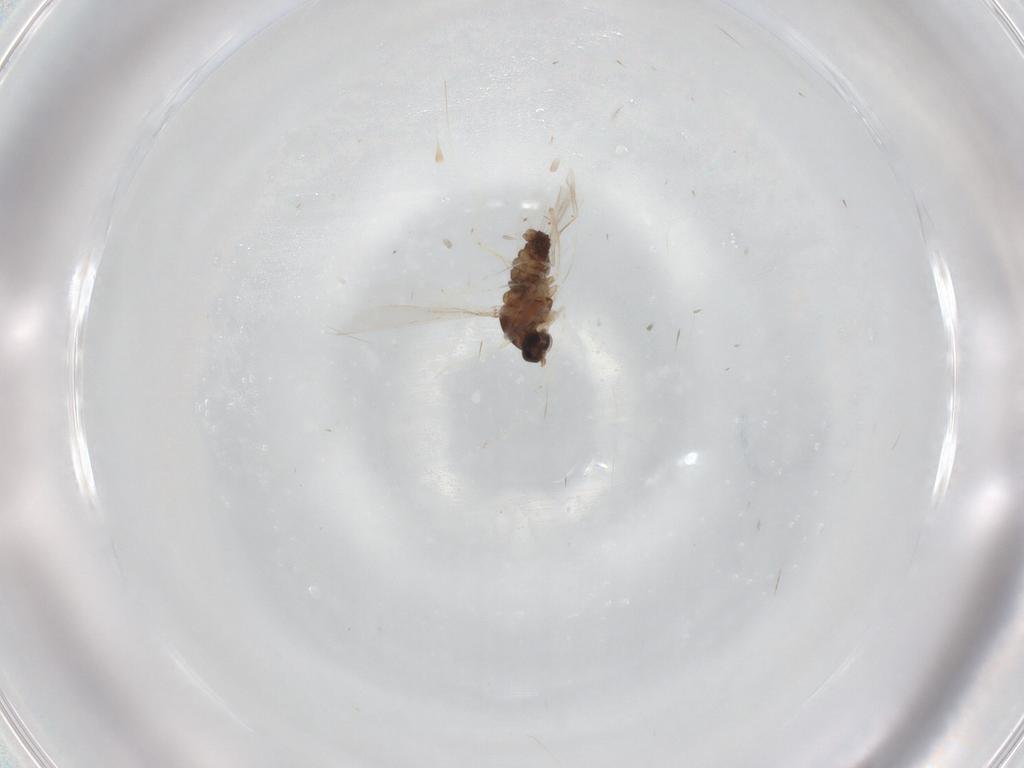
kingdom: Animalia
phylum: Arthropoda
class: Insecta
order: Diptera
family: Cecidomyiidae
